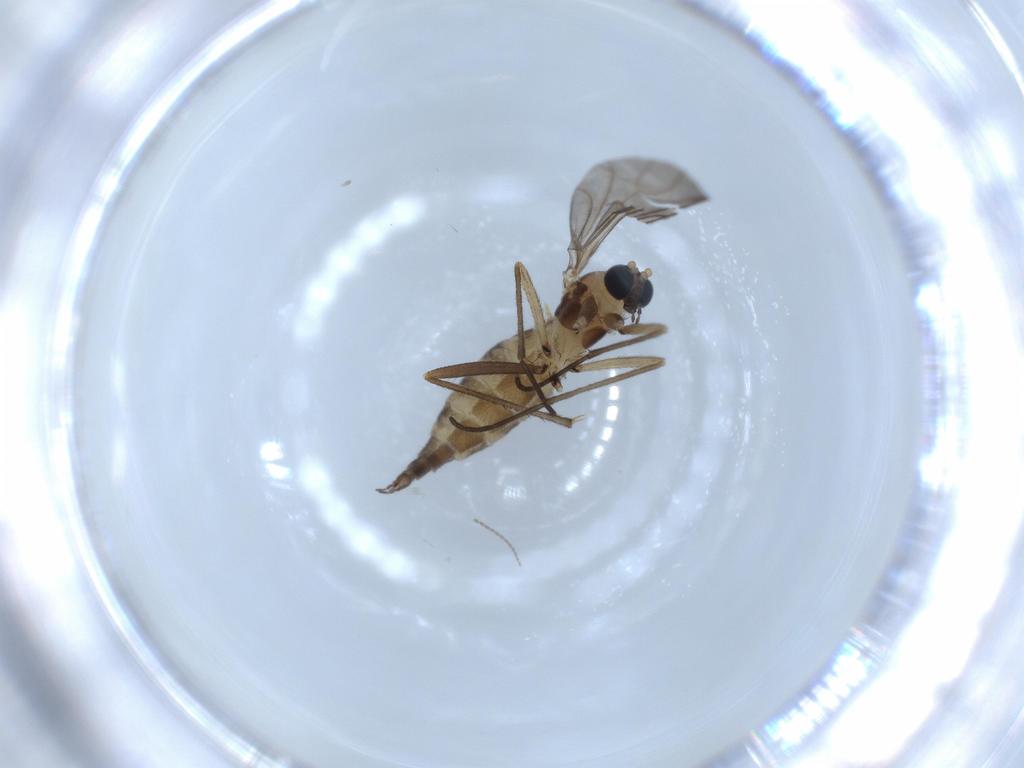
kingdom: Animalia
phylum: Arthropoda
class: Insecta
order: Diptera
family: Sciaridae
